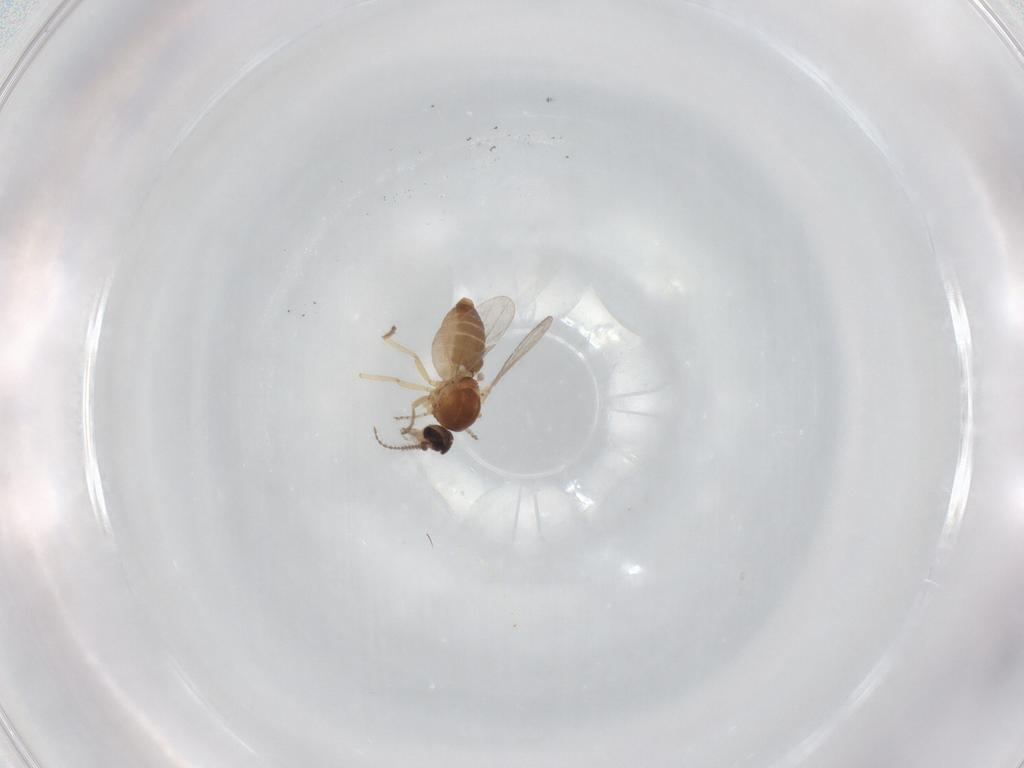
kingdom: Animalia
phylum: Arthropoda
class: Insecta
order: Diptera
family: Ceratopogonidae
